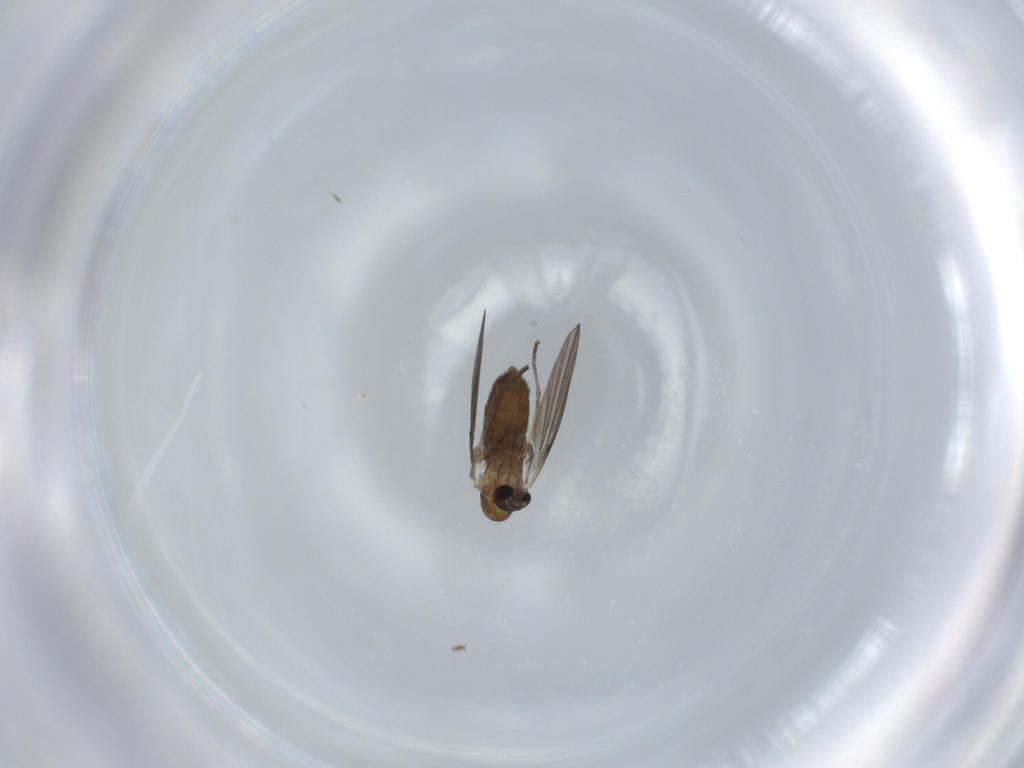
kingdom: Animalia
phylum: Arthropoda
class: Insecta
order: Diptera
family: Psychodidae
